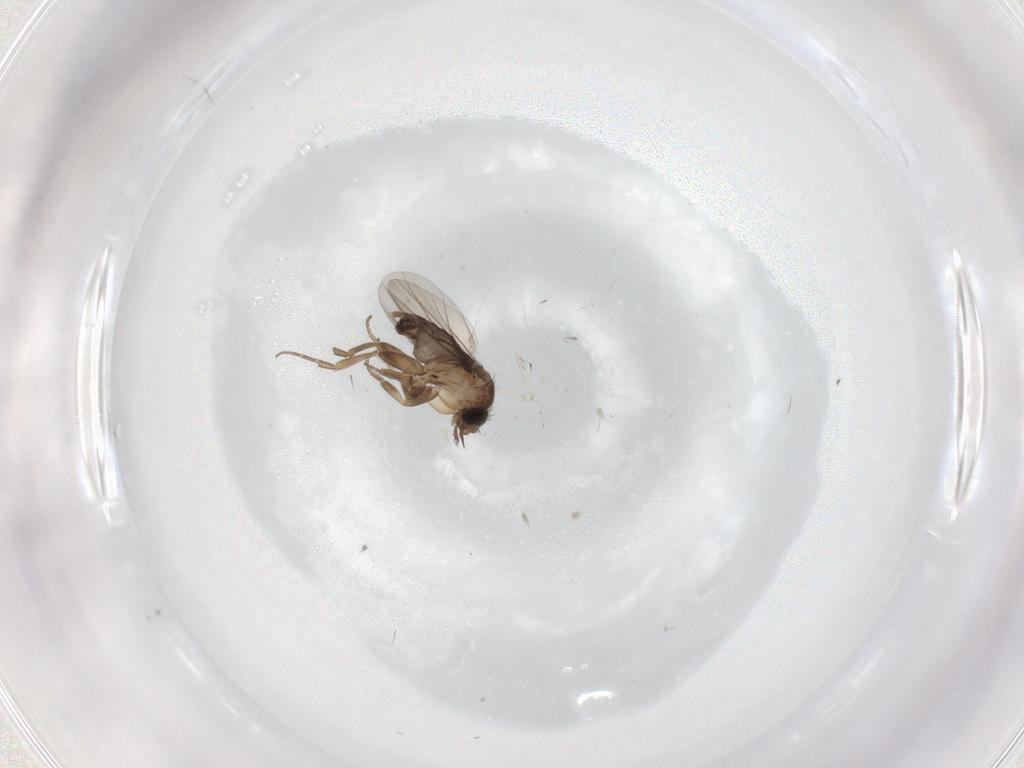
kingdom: Animalia
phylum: Arthropoda
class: Insecta
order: Diptera
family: Phoridae
